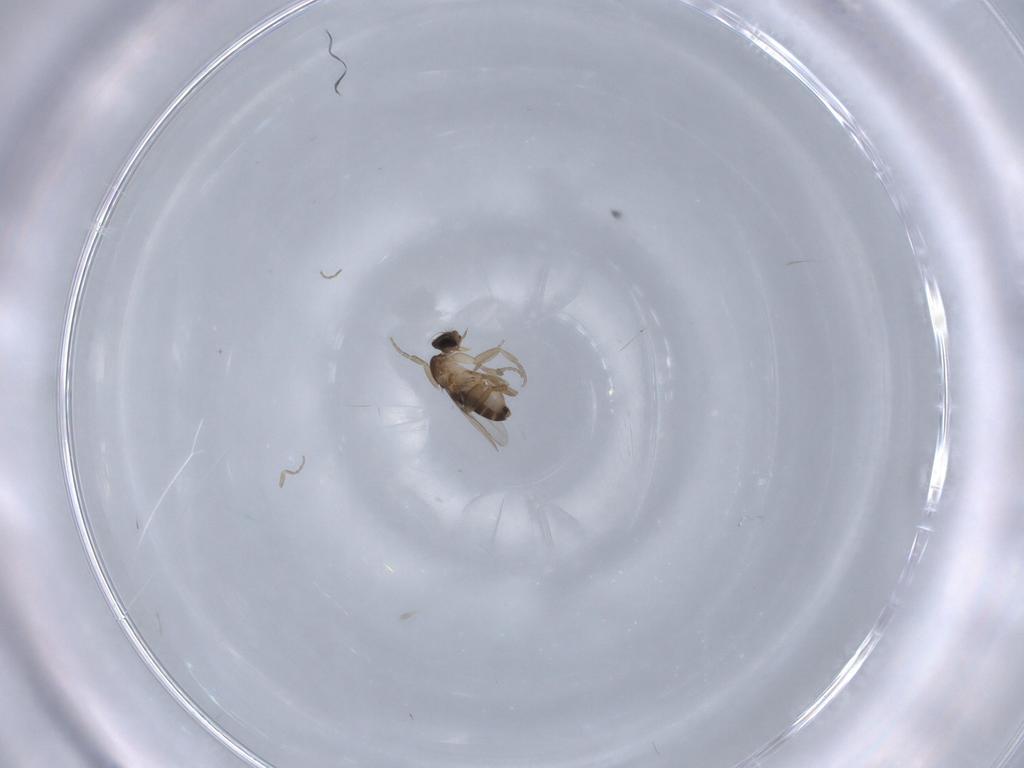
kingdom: Animalia
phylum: Arthropoda
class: Insecta
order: Diptera
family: Phoridae
